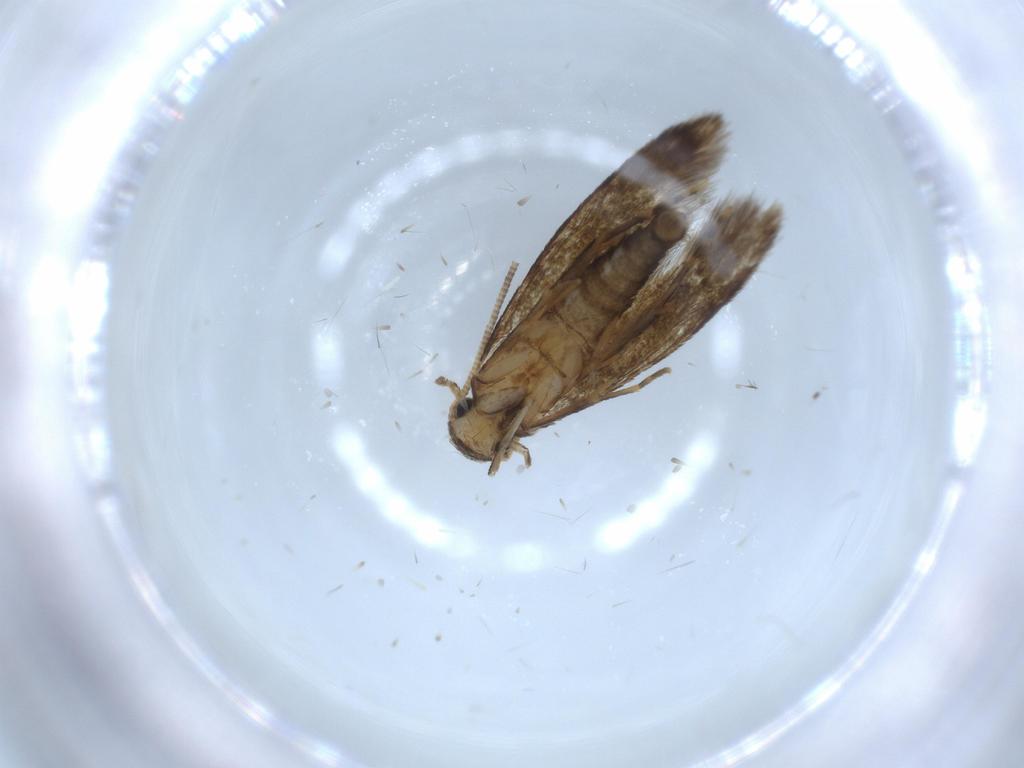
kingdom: Animalia
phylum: Arthropoda
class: Insecta
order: Lepidoptera
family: Tineidae
